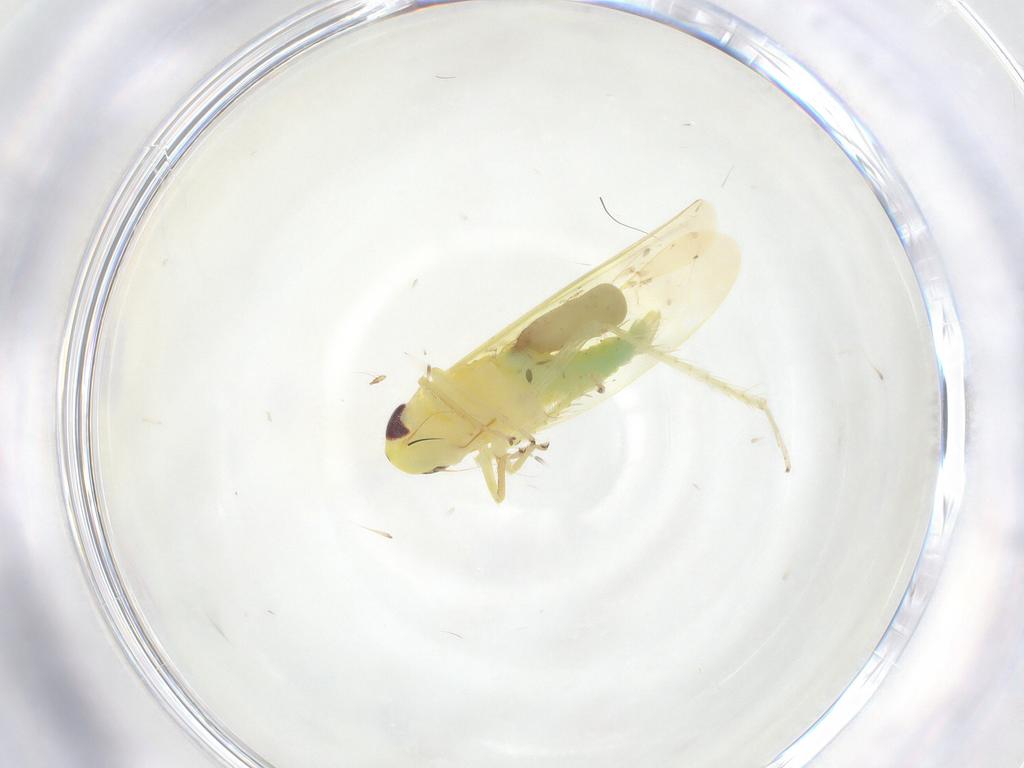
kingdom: Animalia
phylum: Arthropoda
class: Insecta
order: Hemiptera
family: Cicadellidae
